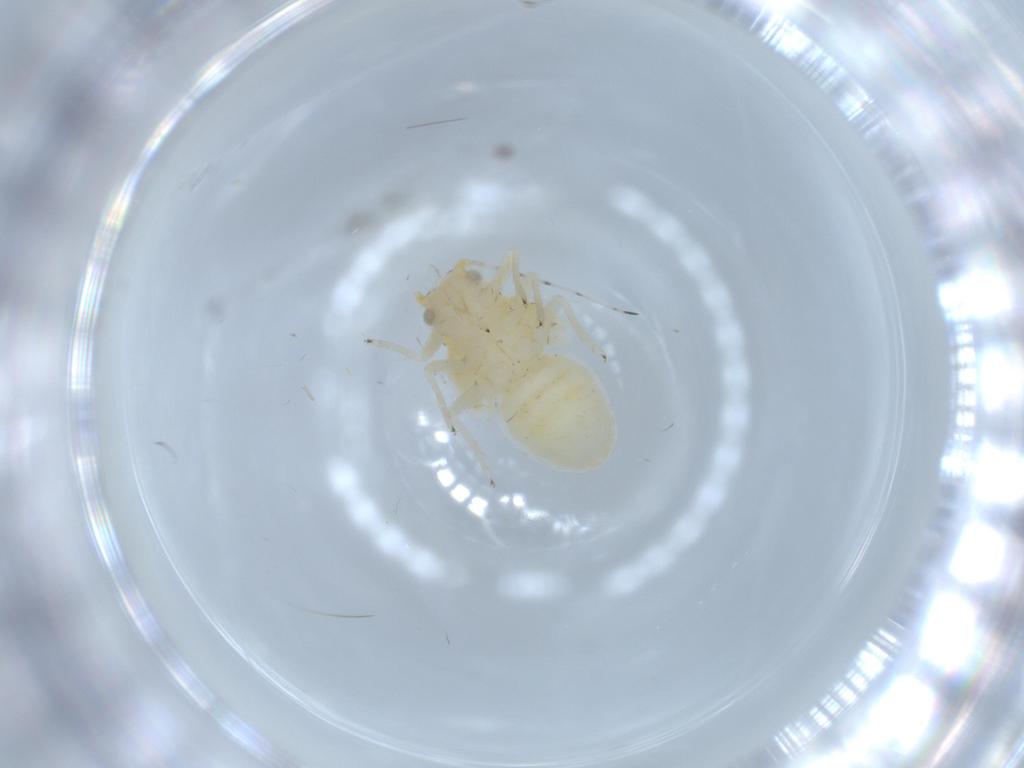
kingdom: Animalia
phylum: Arthropoda
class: Insecta
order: Hemiptera
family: Psyllidae
